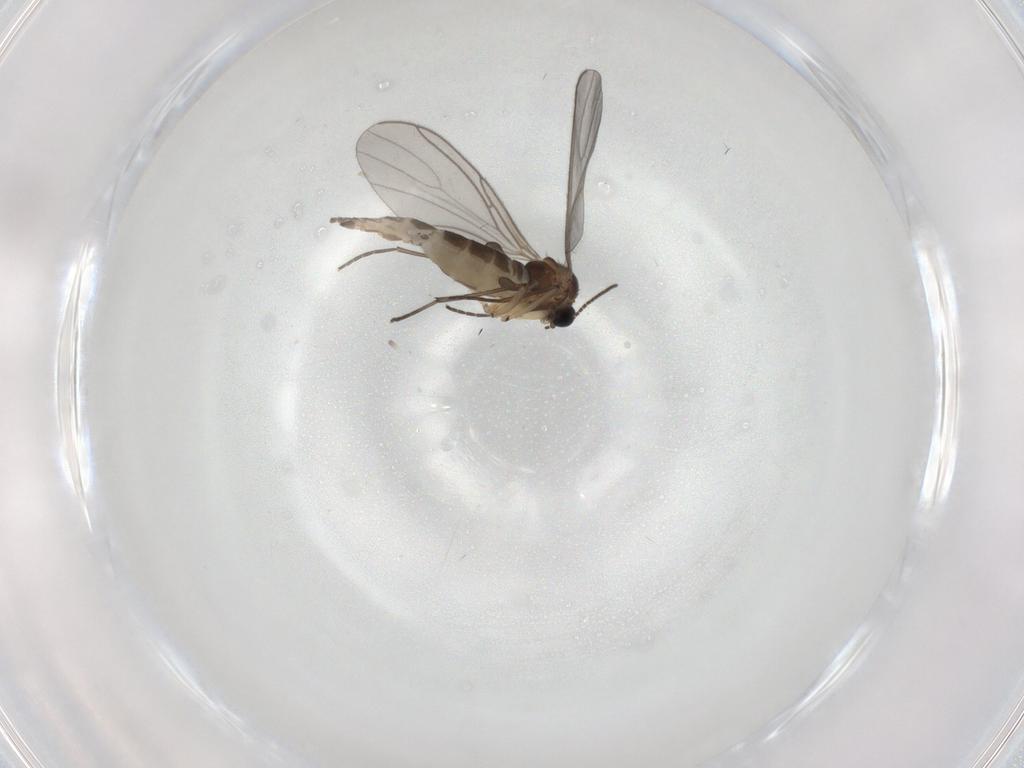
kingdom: Animalia
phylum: Arthropoda
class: Insecta
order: Diptera
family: Sciaridae
